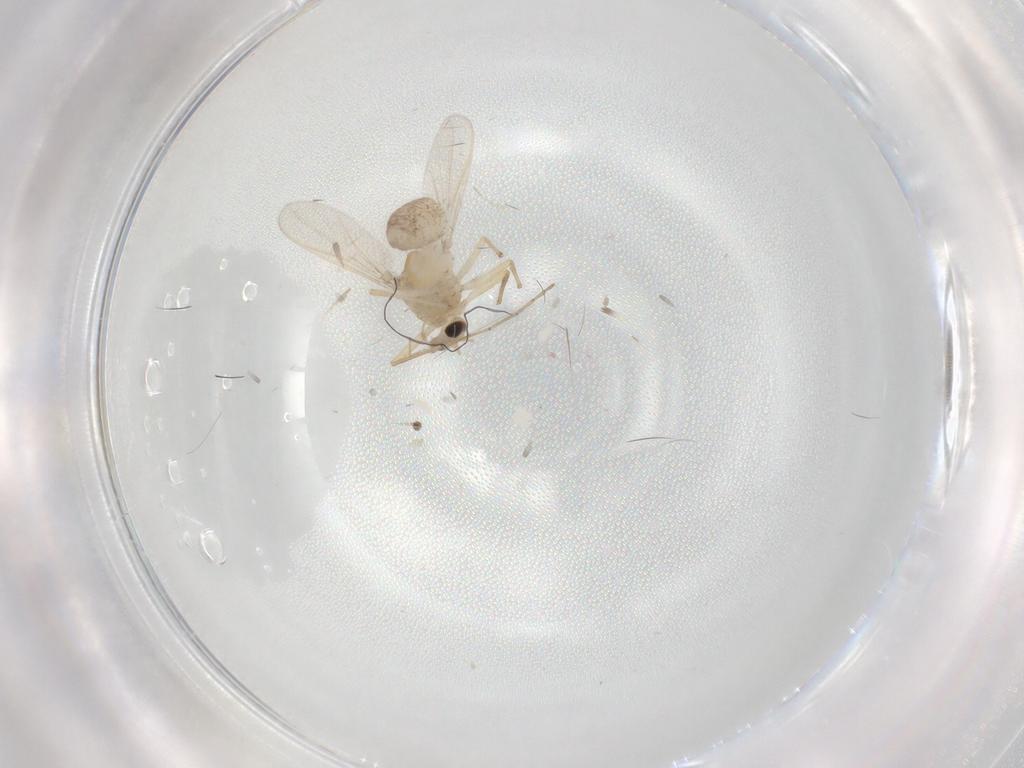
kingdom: Animalia
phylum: Arthropoda
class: Insecta
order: Diptera
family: Chironomidae
